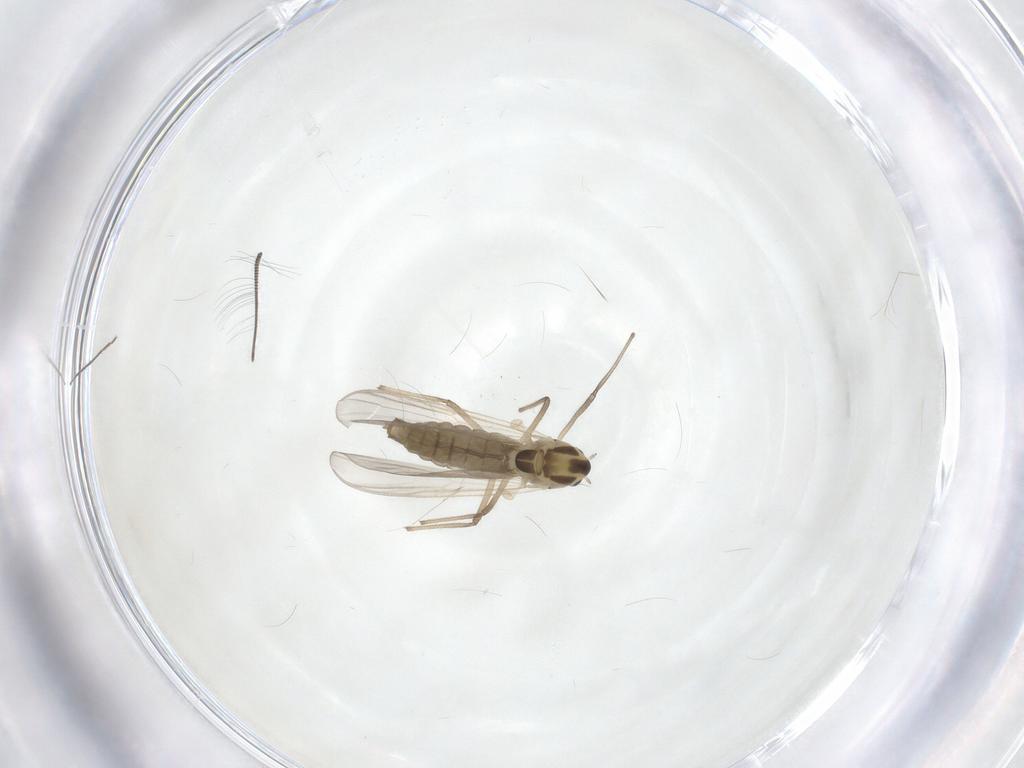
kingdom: Animalia
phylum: Arthropoda
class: Insecta
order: Diptera
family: Chironomidae
